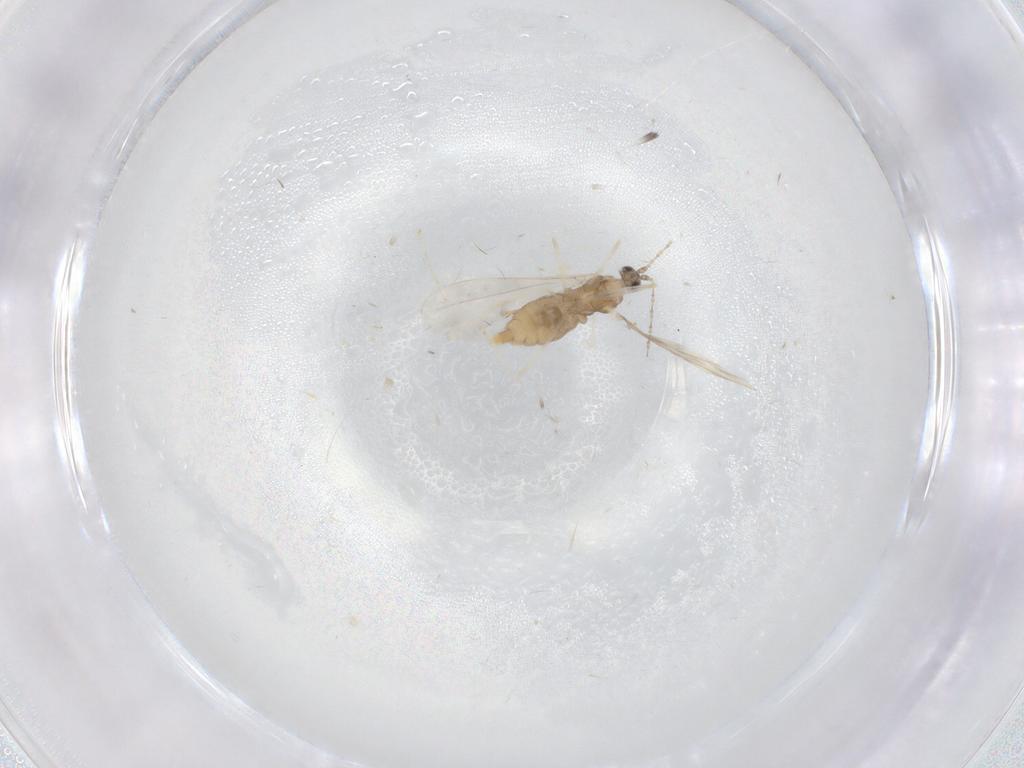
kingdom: Animalia
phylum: Arthropoda
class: Insecta
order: Diptera
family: Cecidomyiidae
